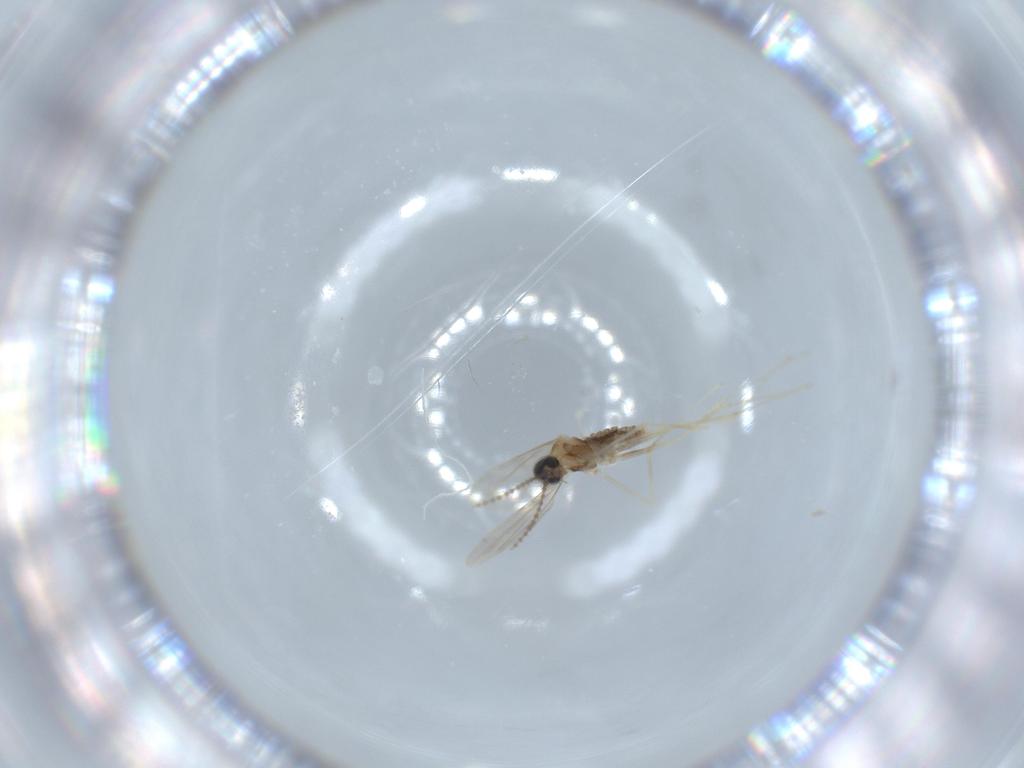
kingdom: Animalia
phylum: Arthropoda
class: Insecta
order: Diptera
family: Cecidomyiidae
